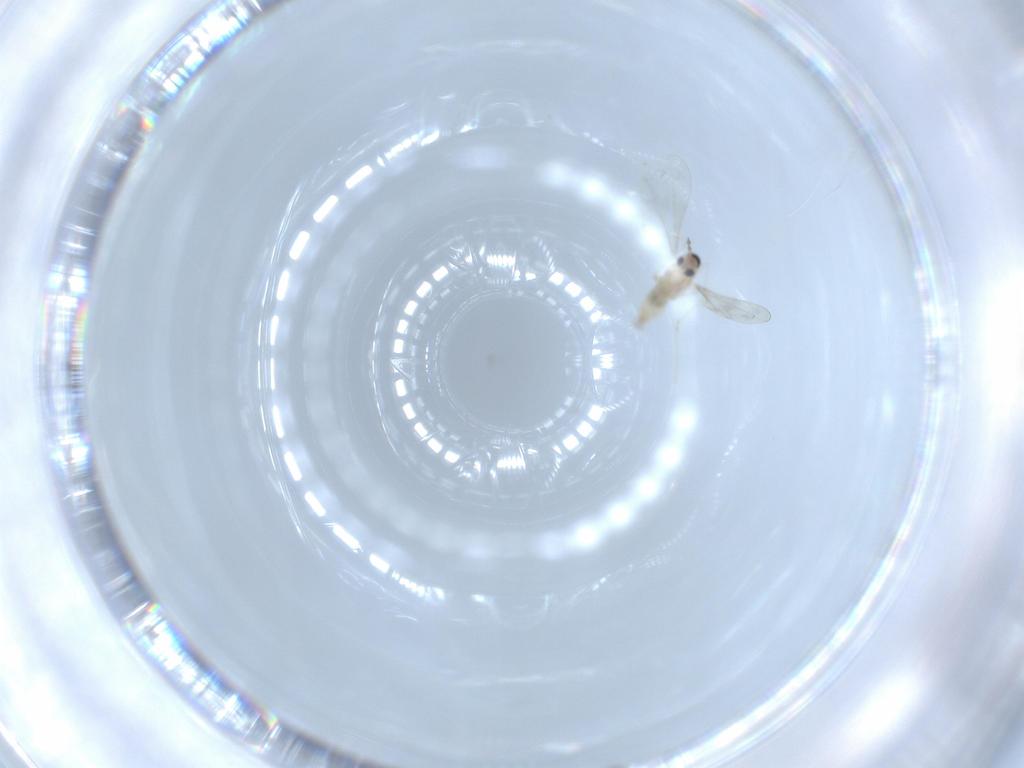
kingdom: Animalia
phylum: Arthropoda
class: Insecta
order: Diptera
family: Cecidomyiidae
